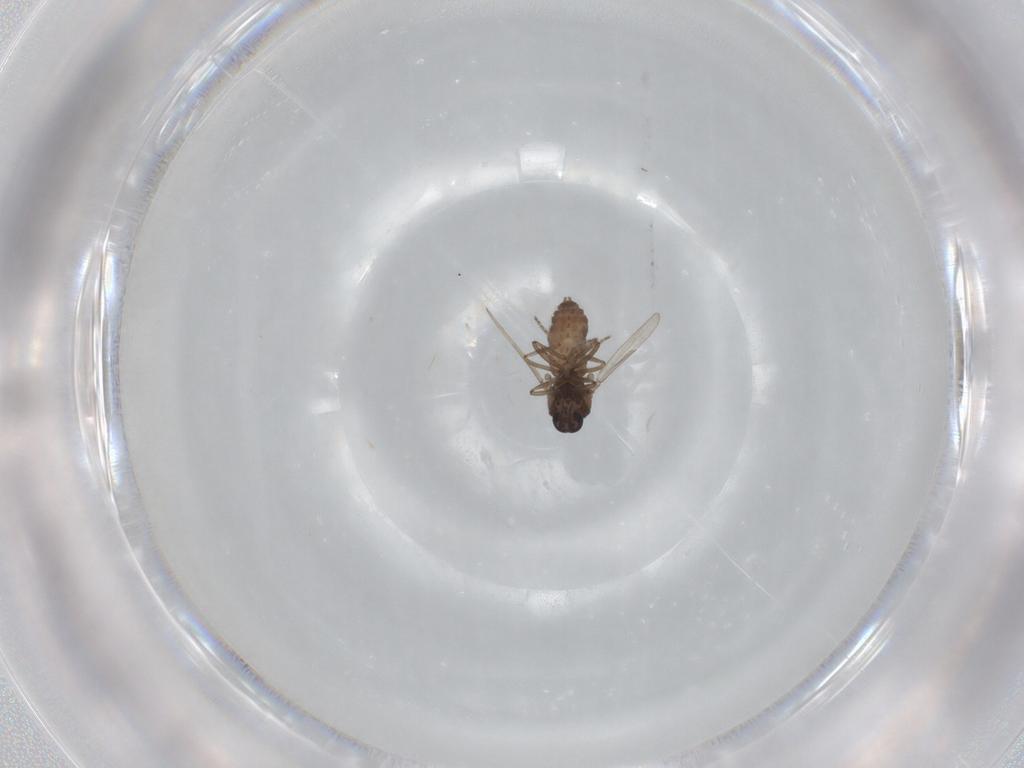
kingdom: Animalia
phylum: Arthropoda
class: Insecta
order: Diptera
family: Ceratopogonidae
